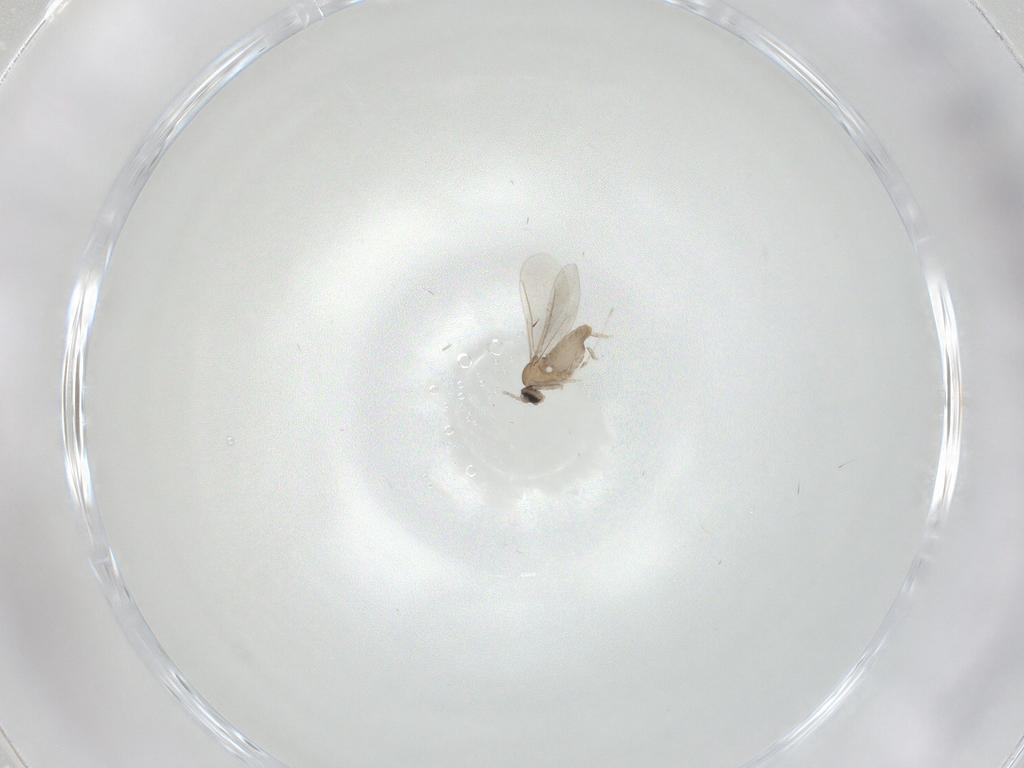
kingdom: Animalia
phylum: Arthropoda
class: Insecta
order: Diptera
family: Cecidomyiidae
